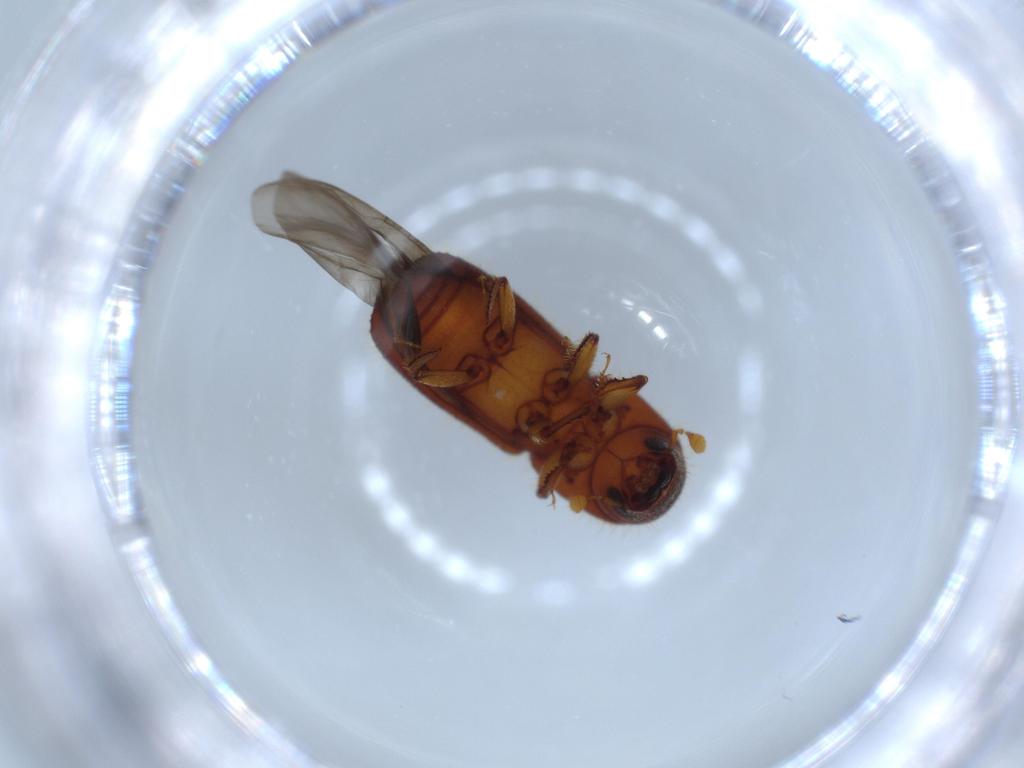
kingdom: Animalia
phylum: Arthropoda
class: Insecta
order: Coleoptera
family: Curculionidae
